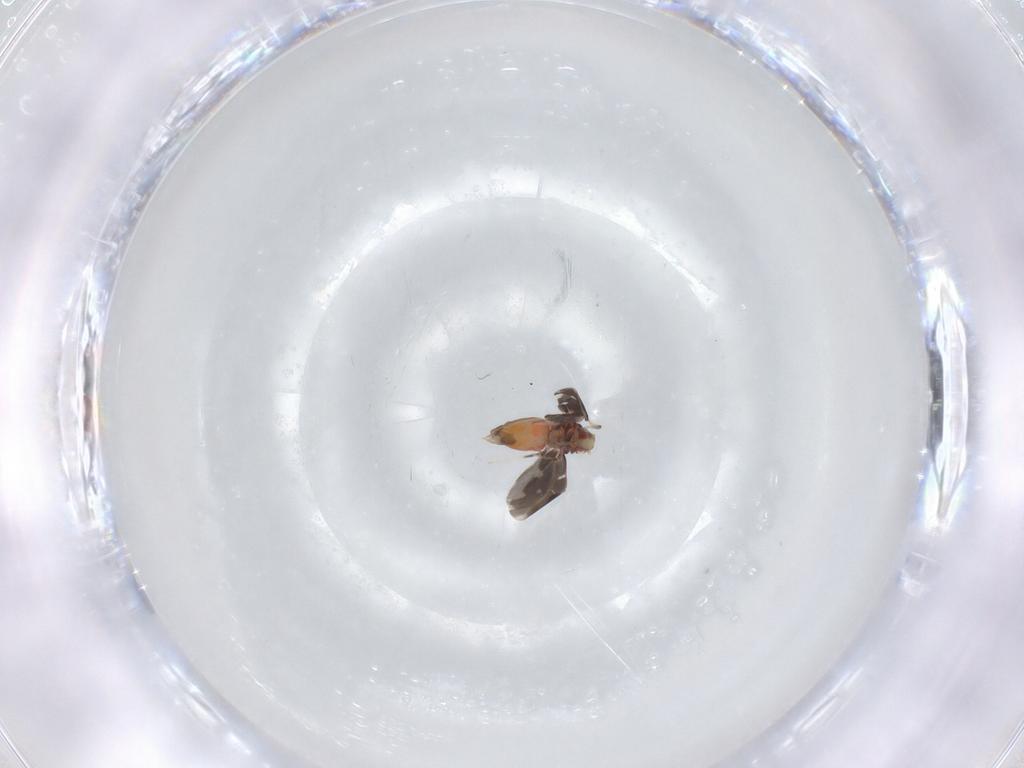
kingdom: Animalia
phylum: Arthropoda
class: Insecta
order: Hemiptera
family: Aleyrodidae
